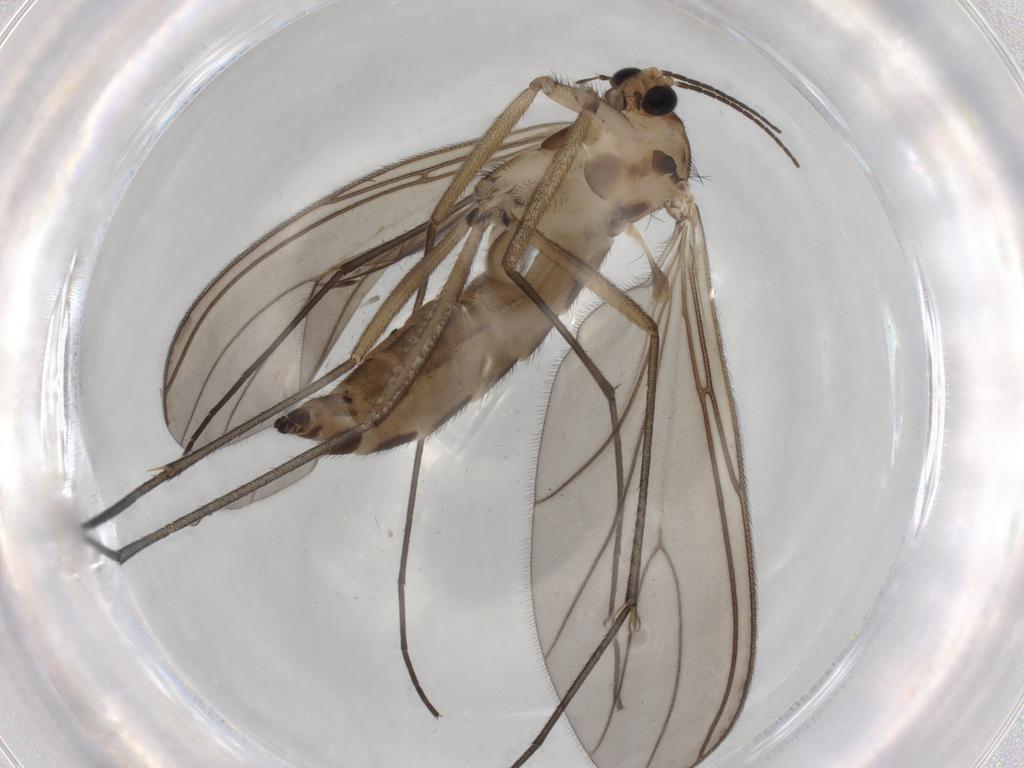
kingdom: Animalia
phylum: Arthropoda
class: Insecta
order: Diptera
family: Sciaridae
